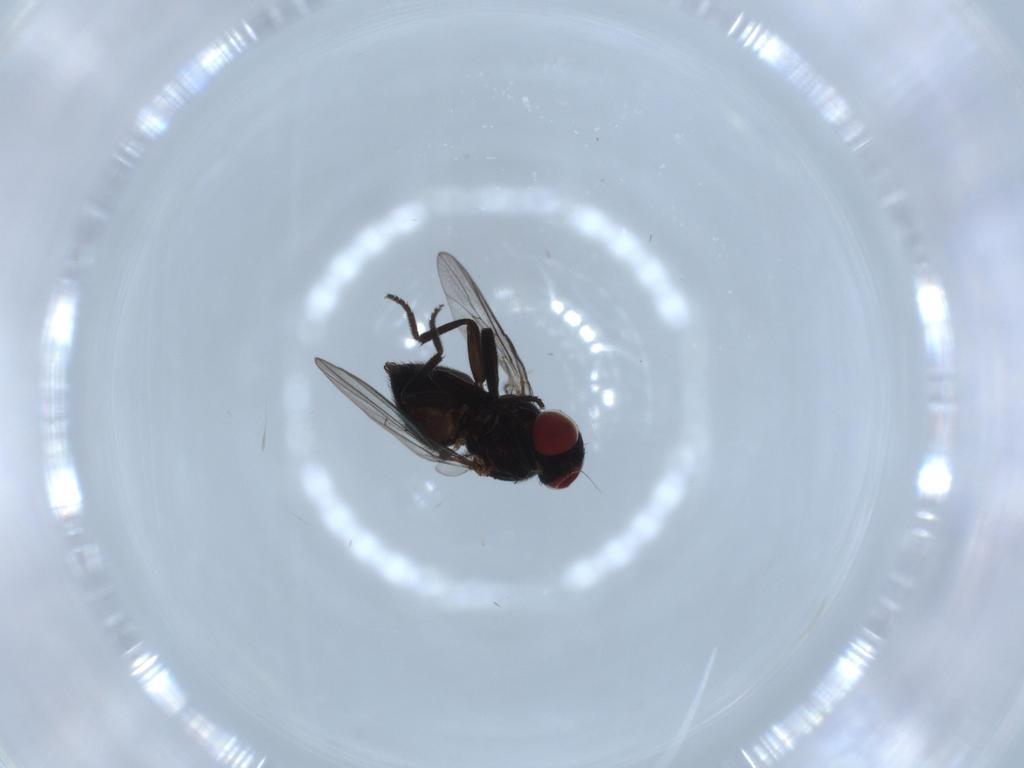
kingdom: Animalia
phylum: Arthropoda
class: Insecta
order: Diptera
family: Agromyzidae
